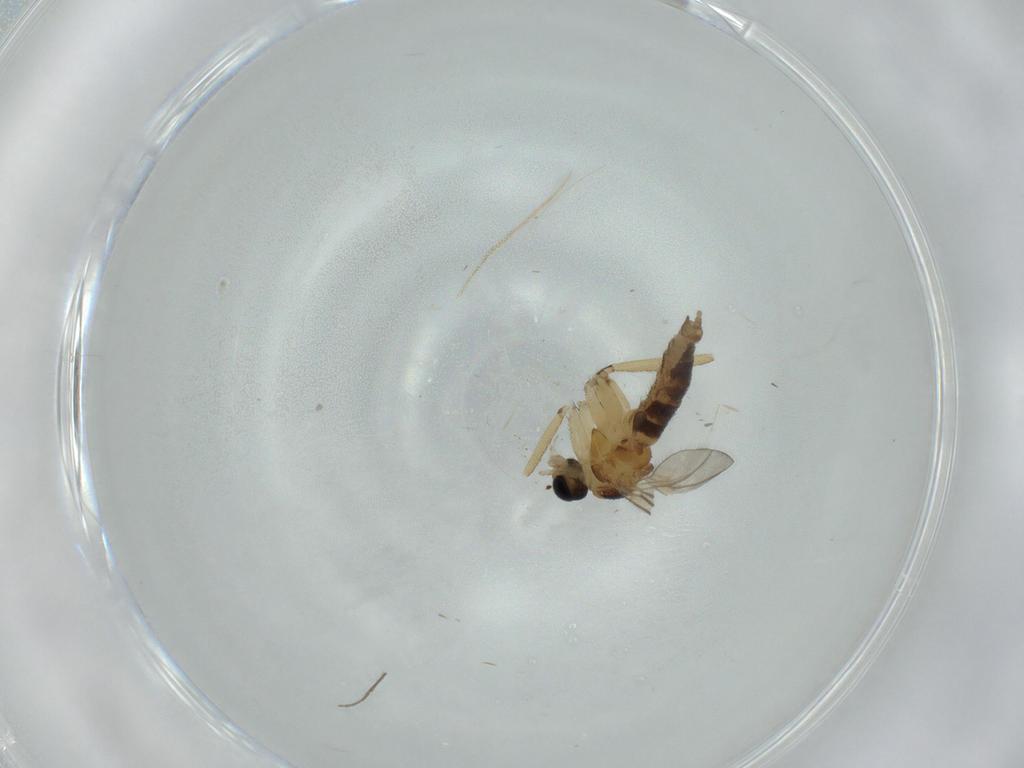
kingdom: Animalia
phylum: Arthropoda
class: Insecta
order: Diptera
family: Chironomidae
